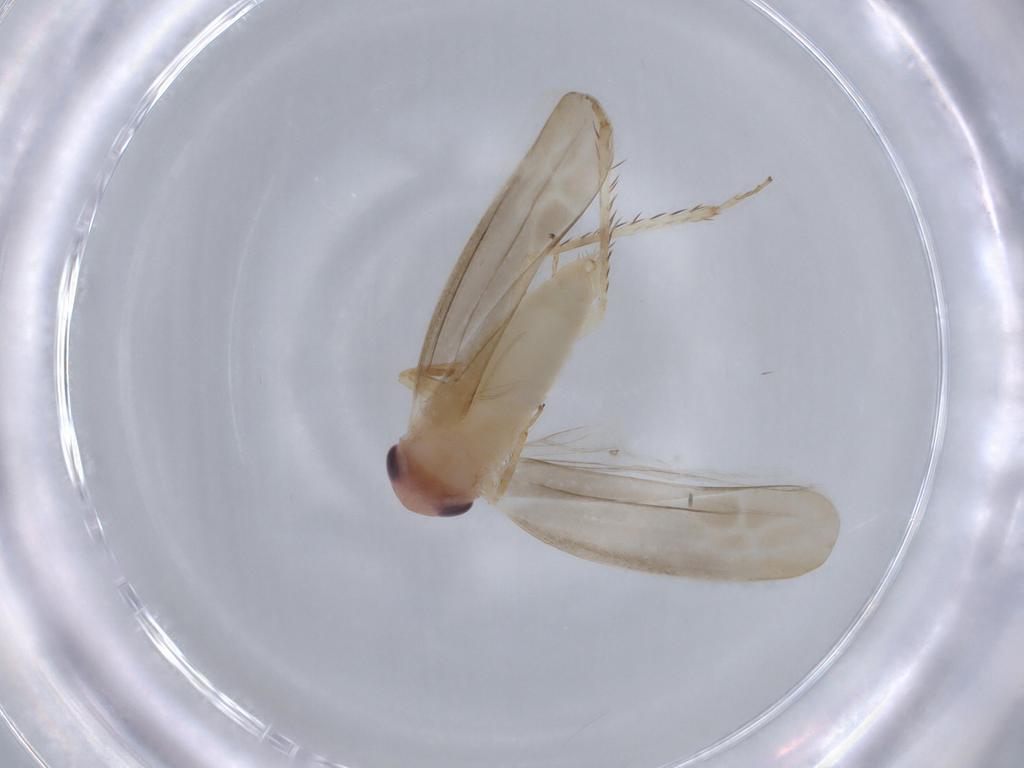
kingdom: Animalia
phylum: Arthropoda
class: Insecta
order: Hemiptera
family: Cicadellidae
